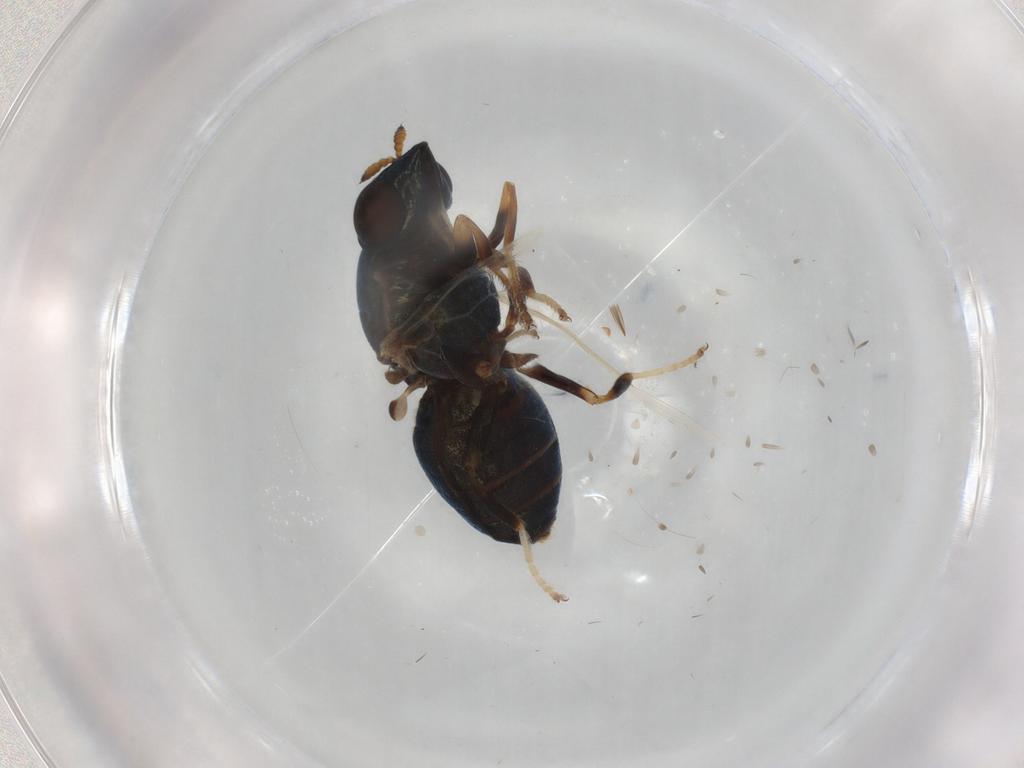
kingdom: Animalia
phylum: Arthropoda
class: Insecta
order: Diptera
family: Stratiomyidae
